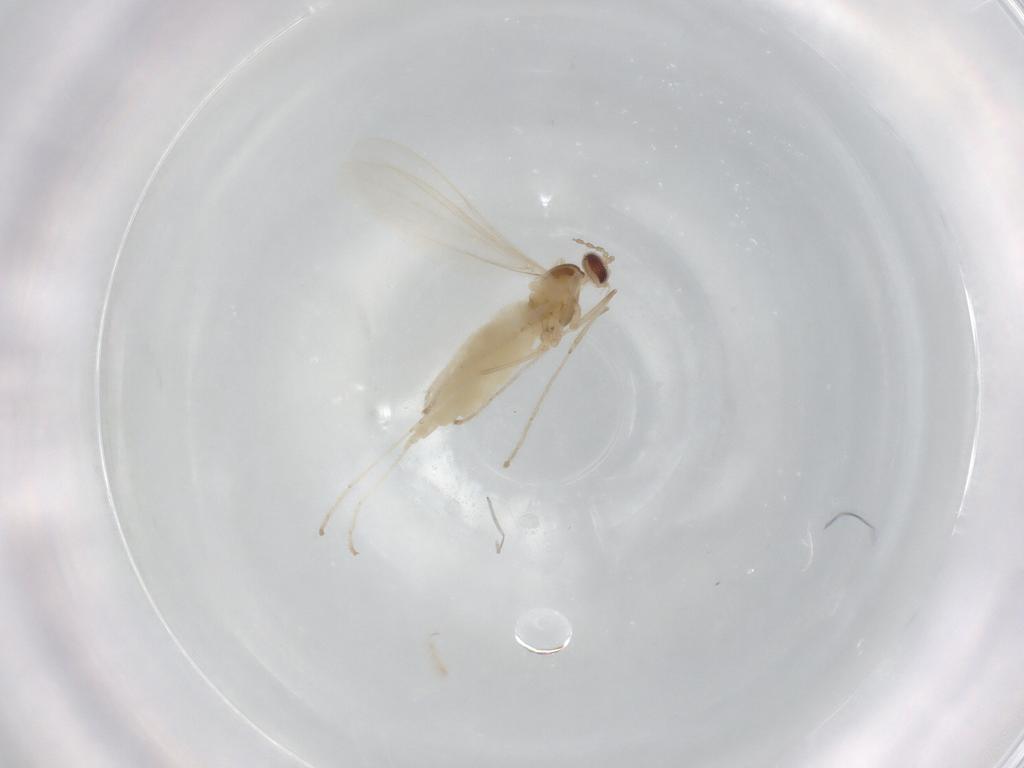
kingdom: Animalia
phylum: Arthropoda
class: Insecta
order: Diptera
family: Cecidomyiidae
